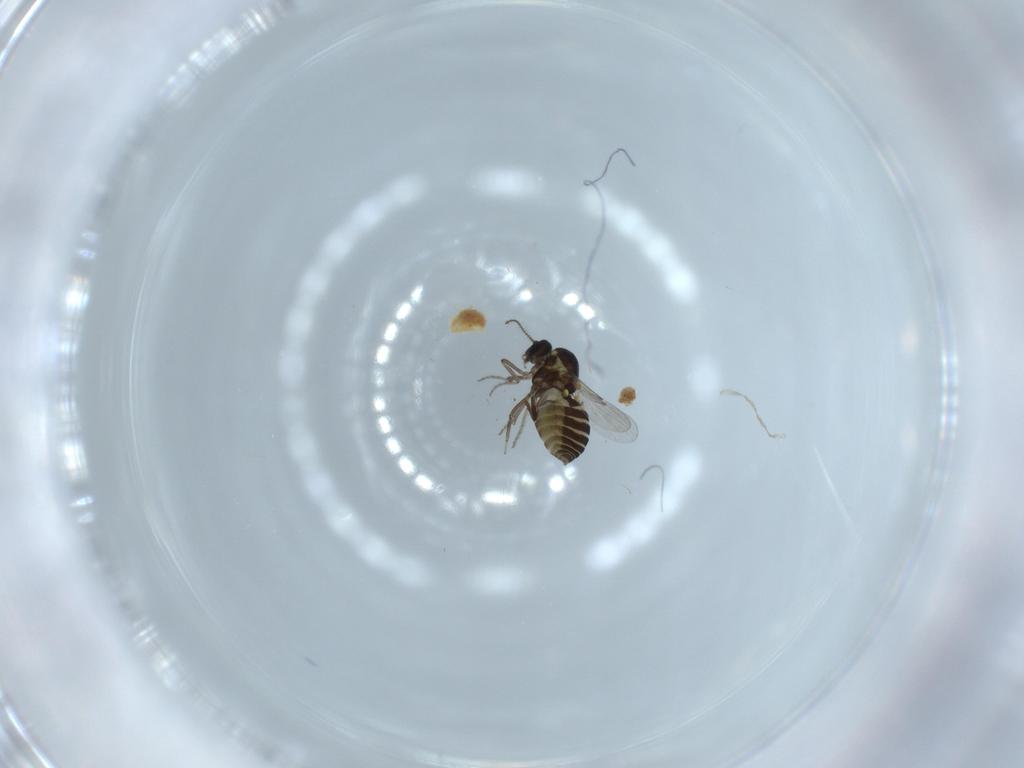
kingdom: Animalia
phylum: Arthropoda
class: Insecta
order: Diptera
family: Ceratopogonidae
